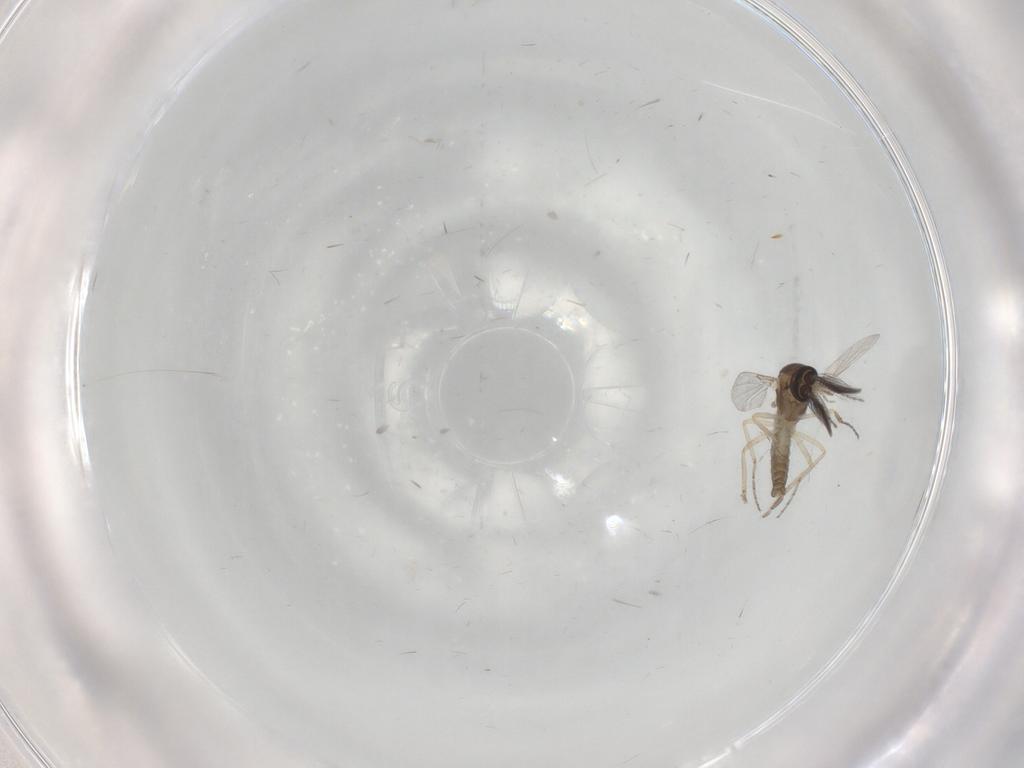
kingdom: Animalia
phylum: Arthropoda
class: Insecta
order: Diptera
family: Ceratopogonidae
